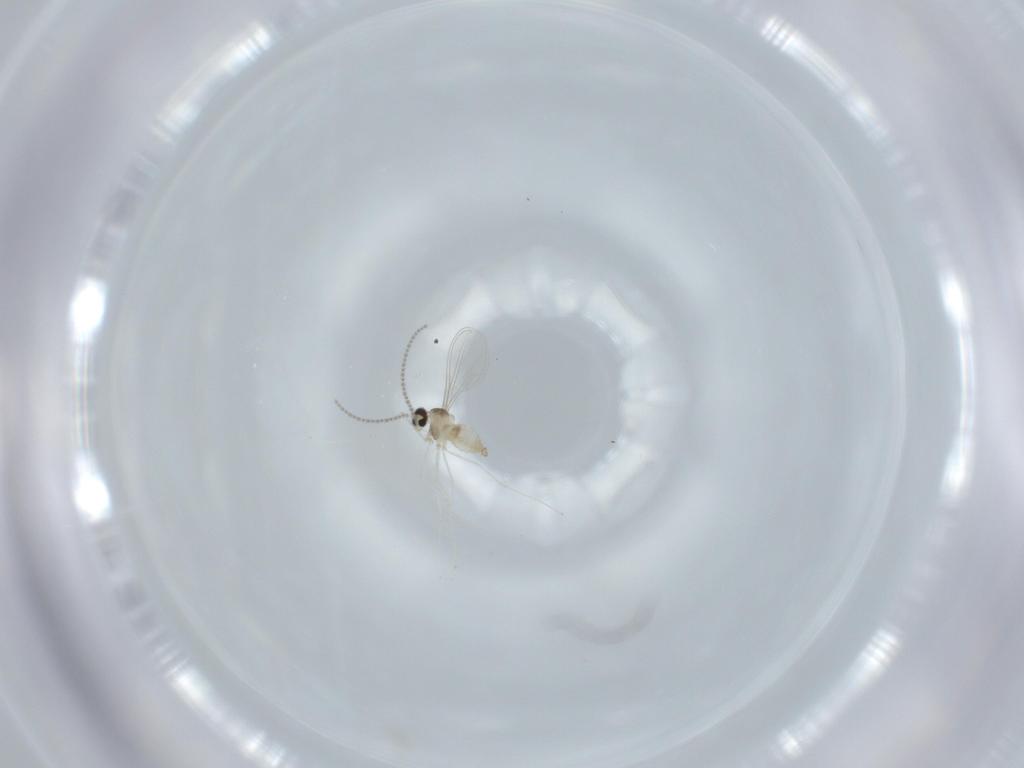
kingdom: Animalia
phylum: Arthropoda
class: Insecta
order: Diptera
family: Cecidomyiidae
